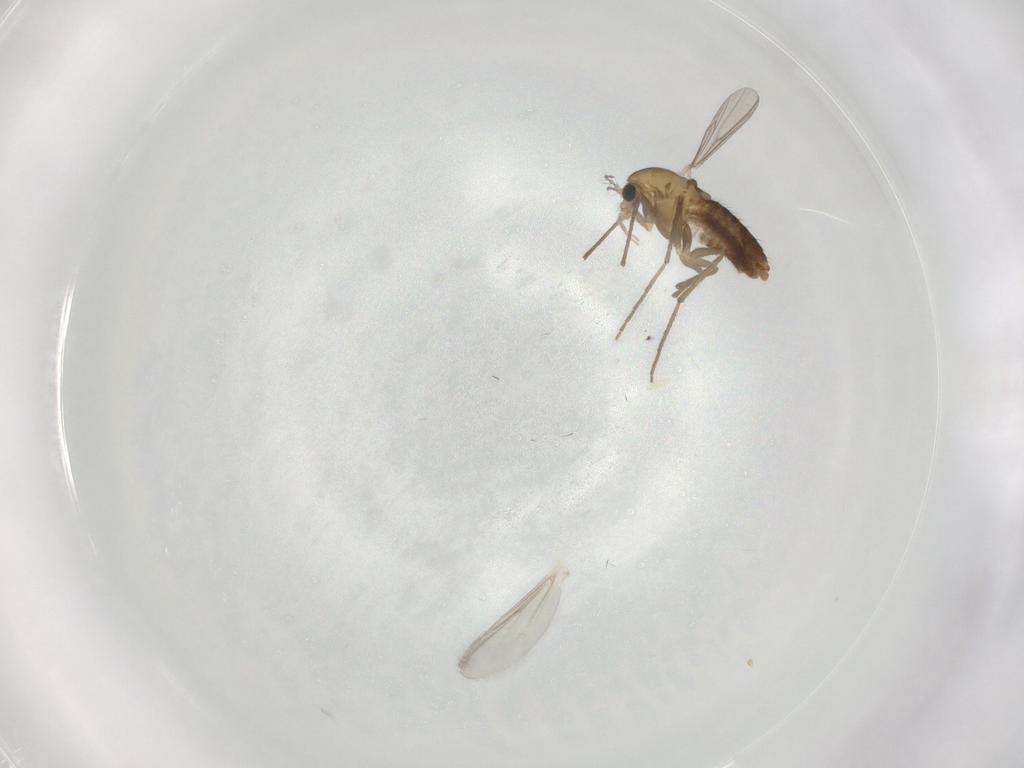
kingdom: Animalia
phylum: Arthropoda
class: Insecta
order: Diptera
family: Chironomidae
